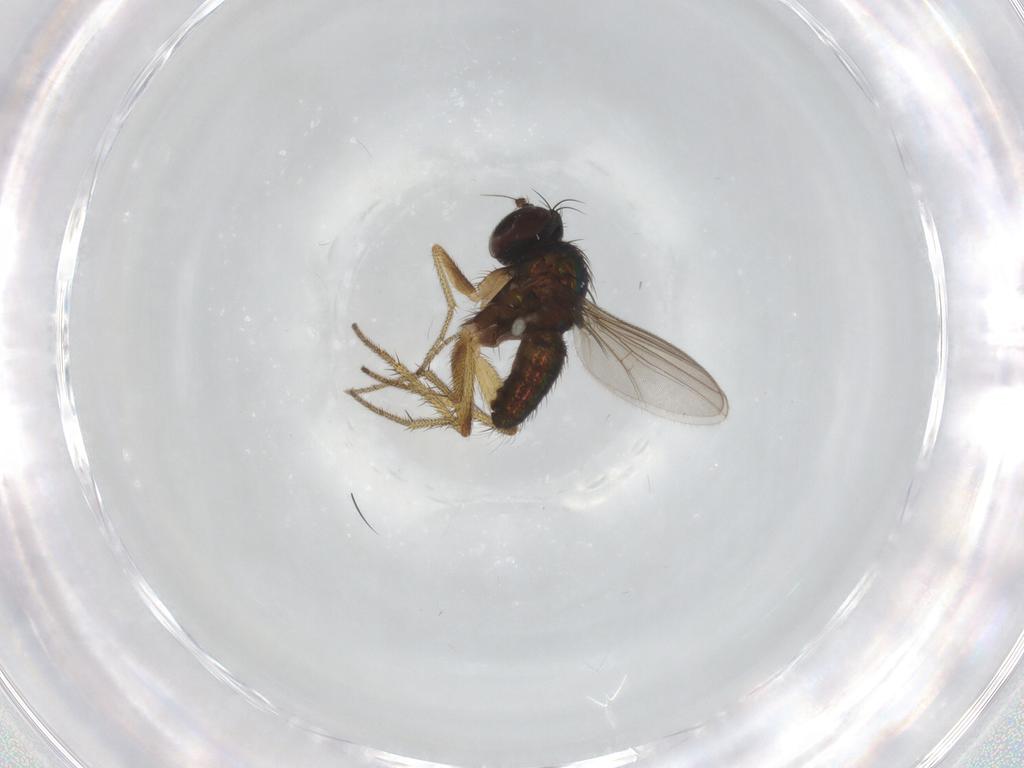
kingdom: Animalia
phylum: Arthropoda
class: Insecta
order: Diptera
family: Chironomidae
